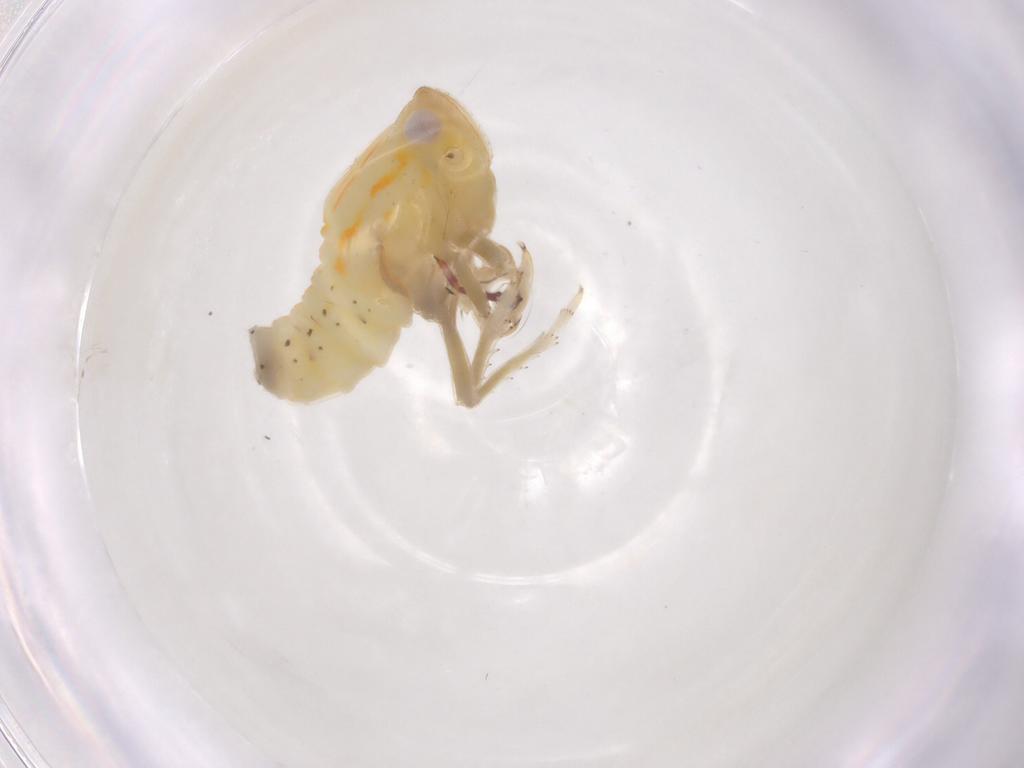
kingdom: Animalia
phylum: Arthropoda
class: Insecta
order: Hemiptera
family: Tropiduchidae
